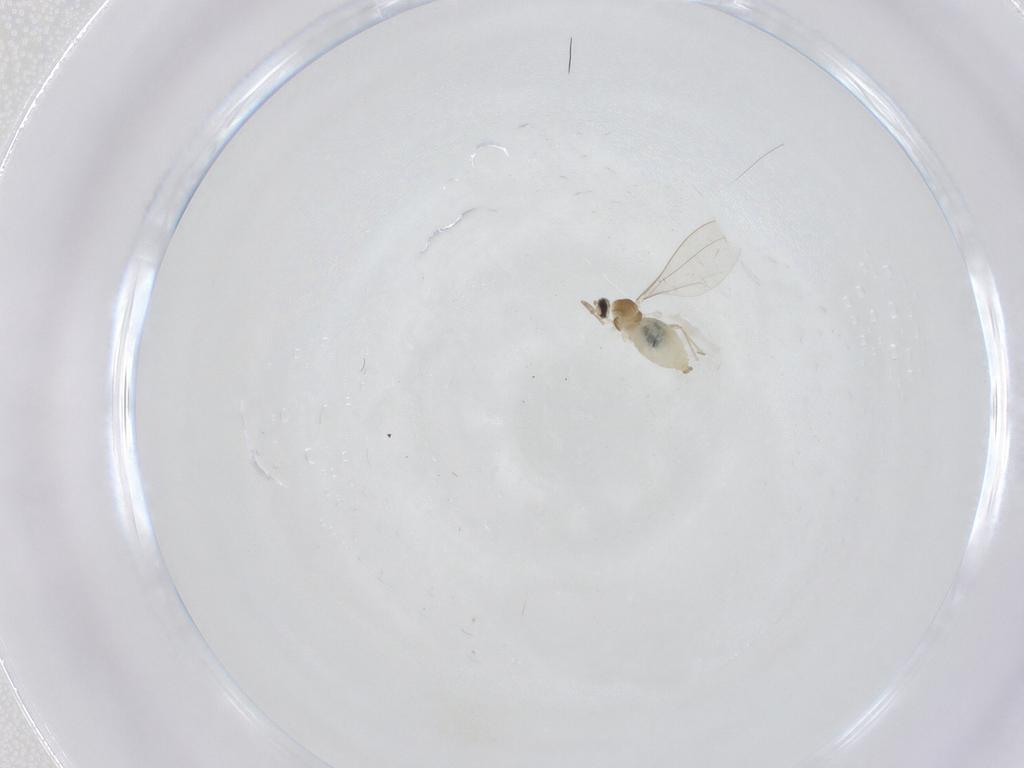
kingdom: Animalia
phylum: Arthropoda
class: Insecta
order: Diptera
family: Cecidomyiidae
